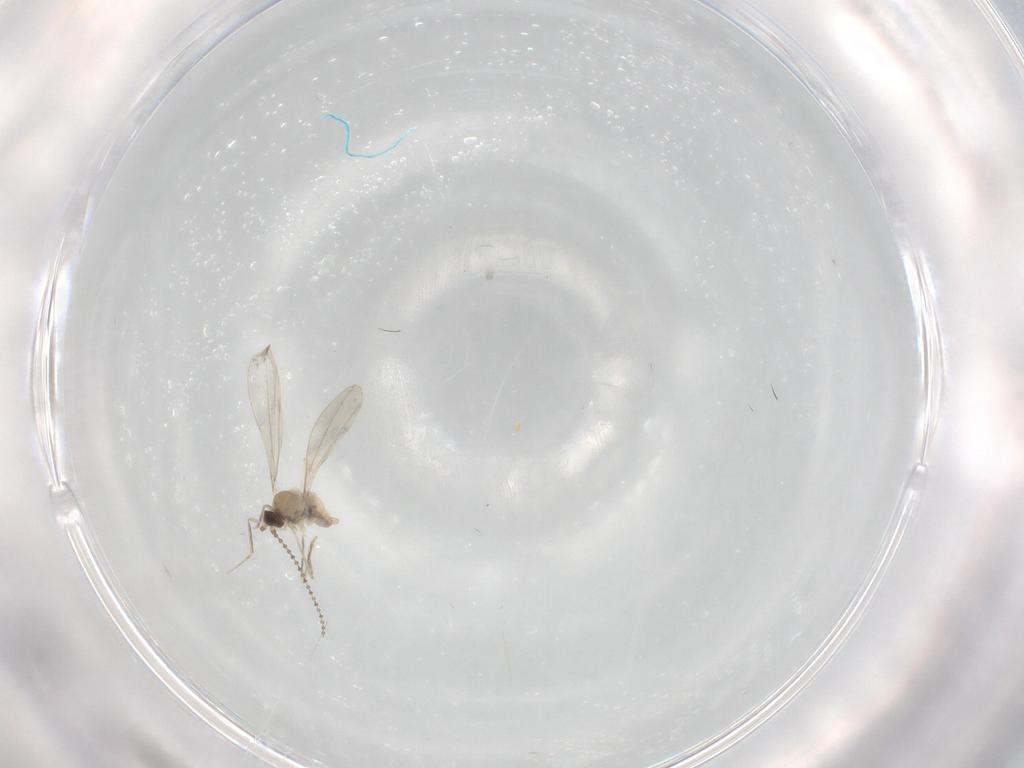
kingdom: Animalia
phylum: Arthropoda
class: Insecta
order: Diptera
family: Cecidomyiidae
